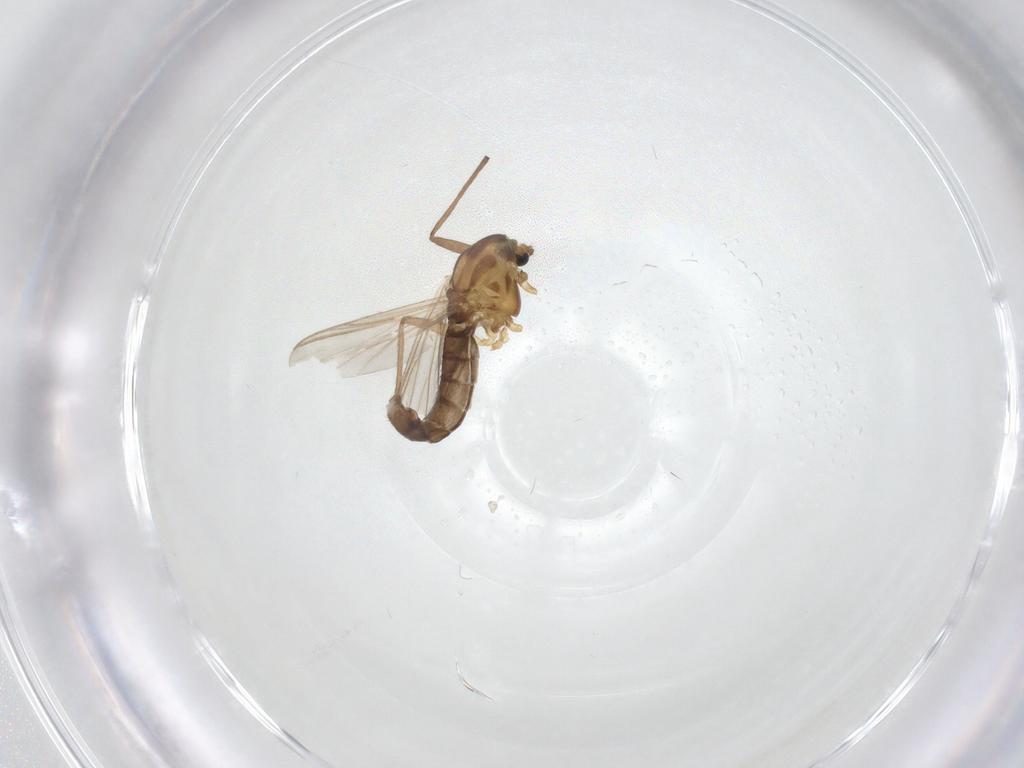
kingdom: Animalia
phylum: Arthropoda
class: Insecta
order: Diptera
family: Chironomidae
